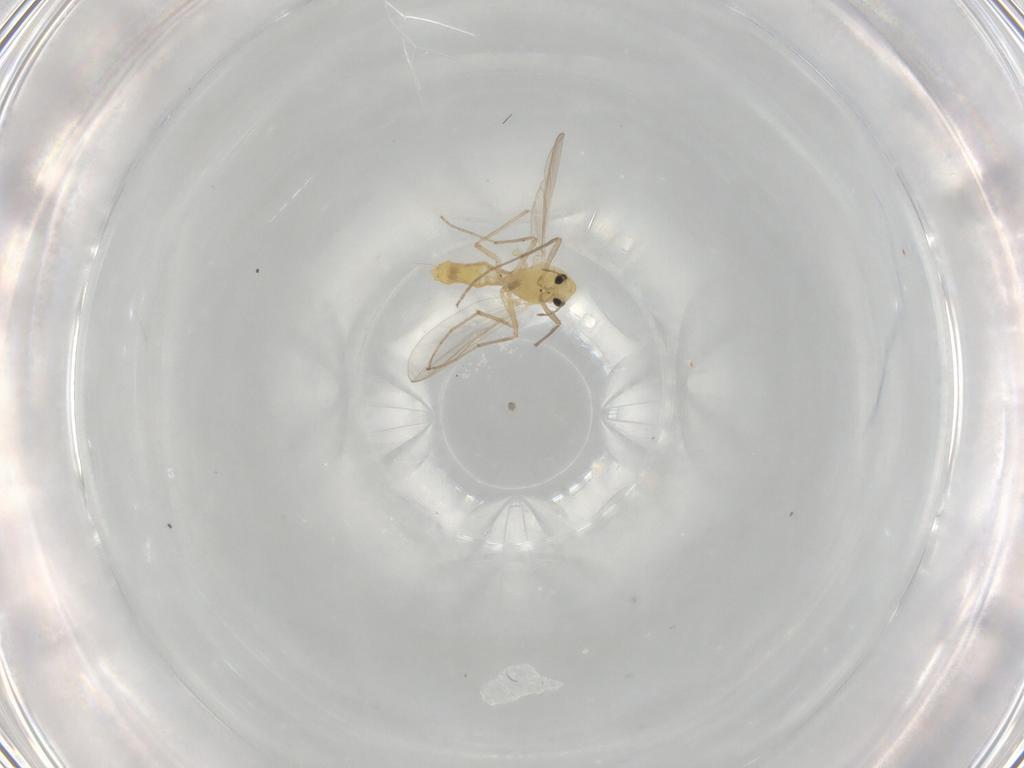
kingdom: Animalia
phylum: Arthropoda
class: Insecta
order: Diptera
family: Chironomidae
